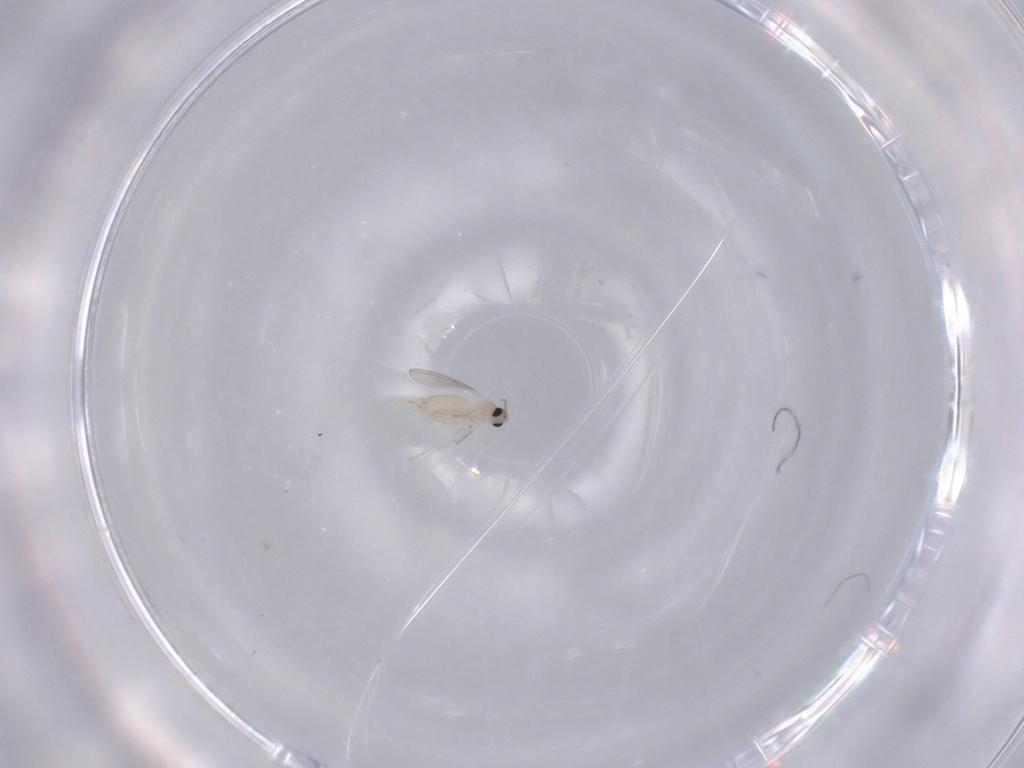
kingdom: Animalia
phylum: Arthropoda
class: Insecta
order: Diptera
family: Cecidomyiidae
